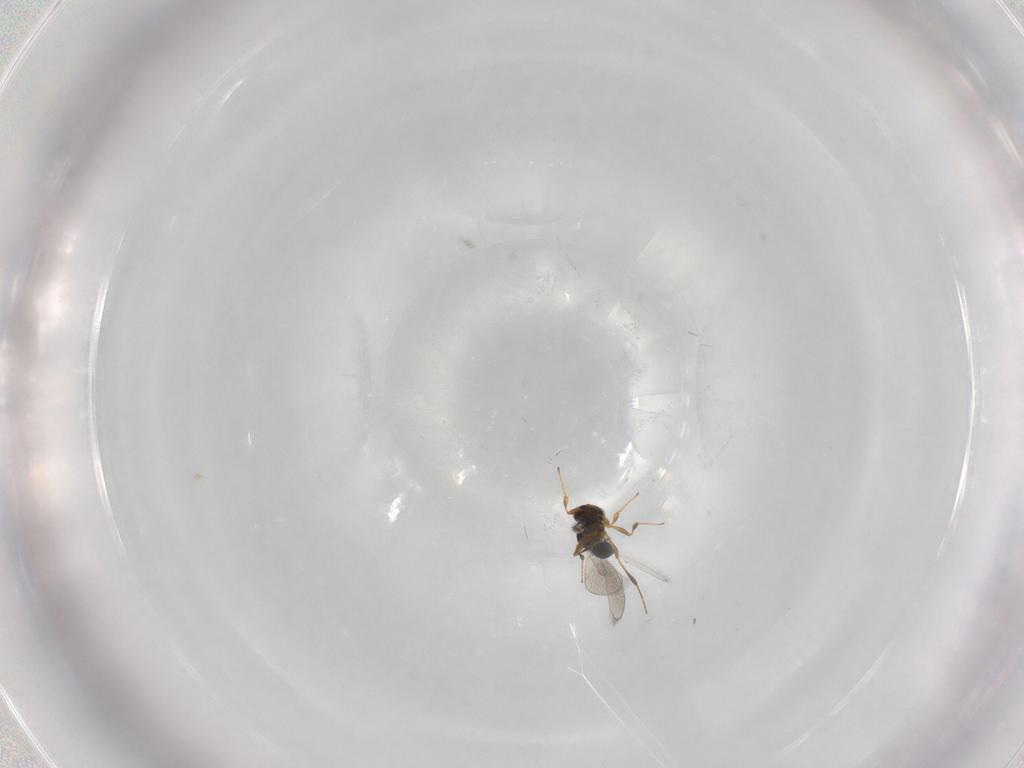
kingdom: Animalia
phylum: Arthropoda
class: Insecta
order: Hymenoptera
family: Platygastridae
